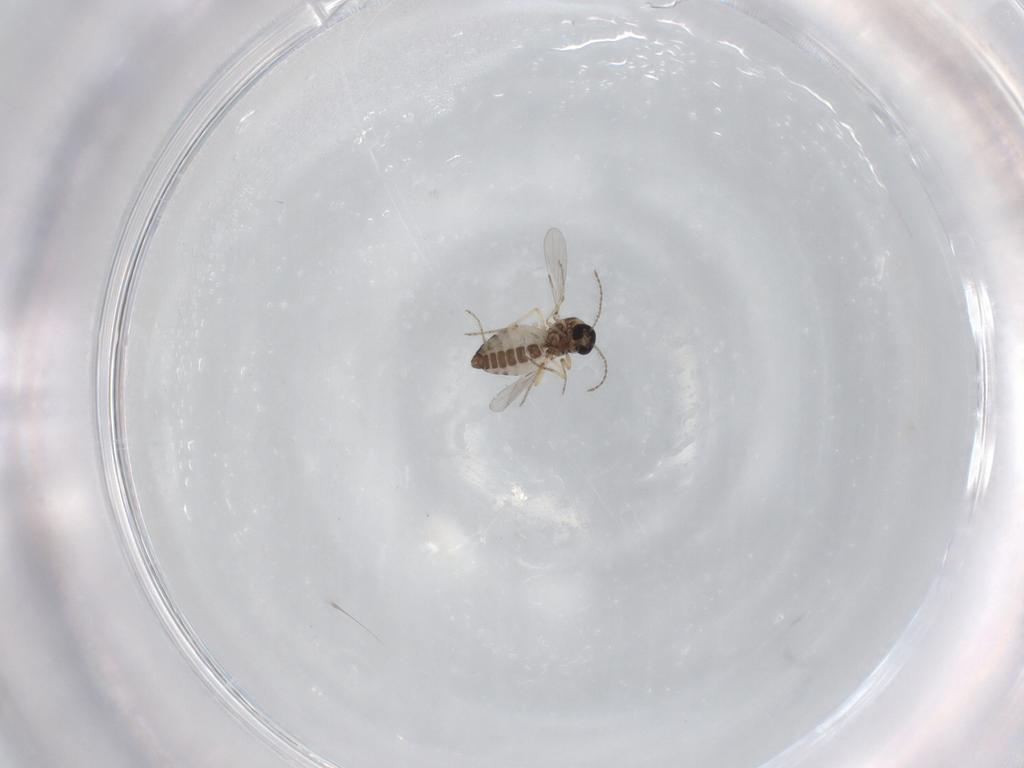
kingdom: Animalia
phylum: Arthropoda
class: Insecta
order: Diptera
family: Ceratopogonidae
